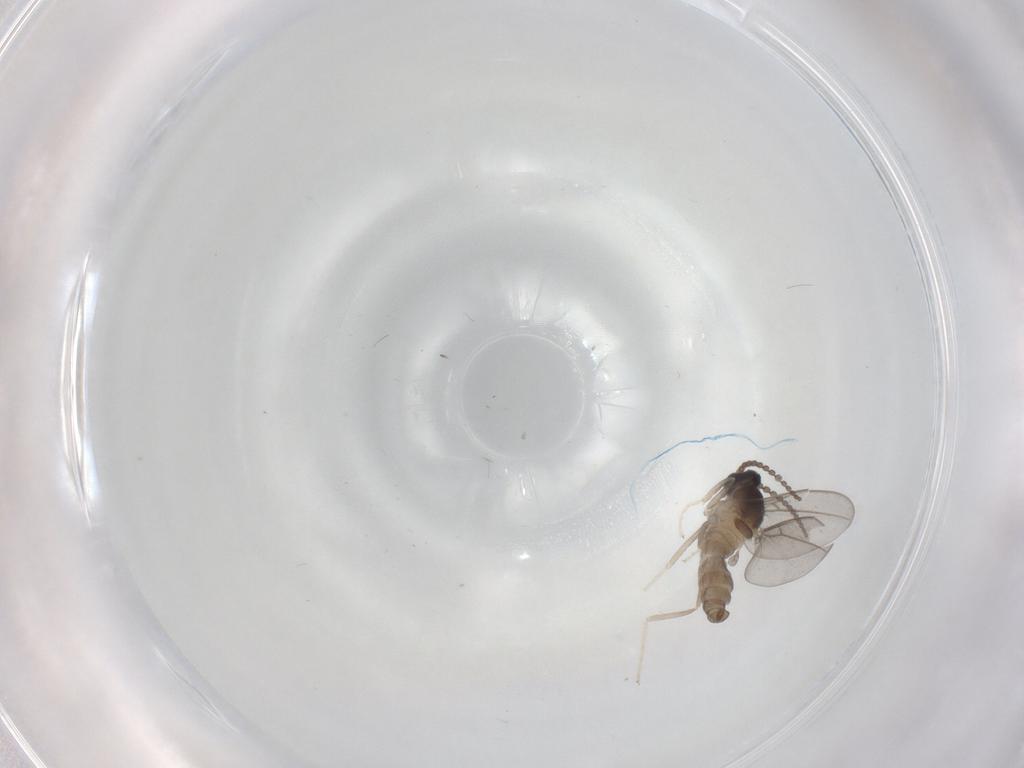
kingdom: Animalia
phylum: Arthropoda
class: Insecta
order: Diptera
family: Cecidomyiidae
